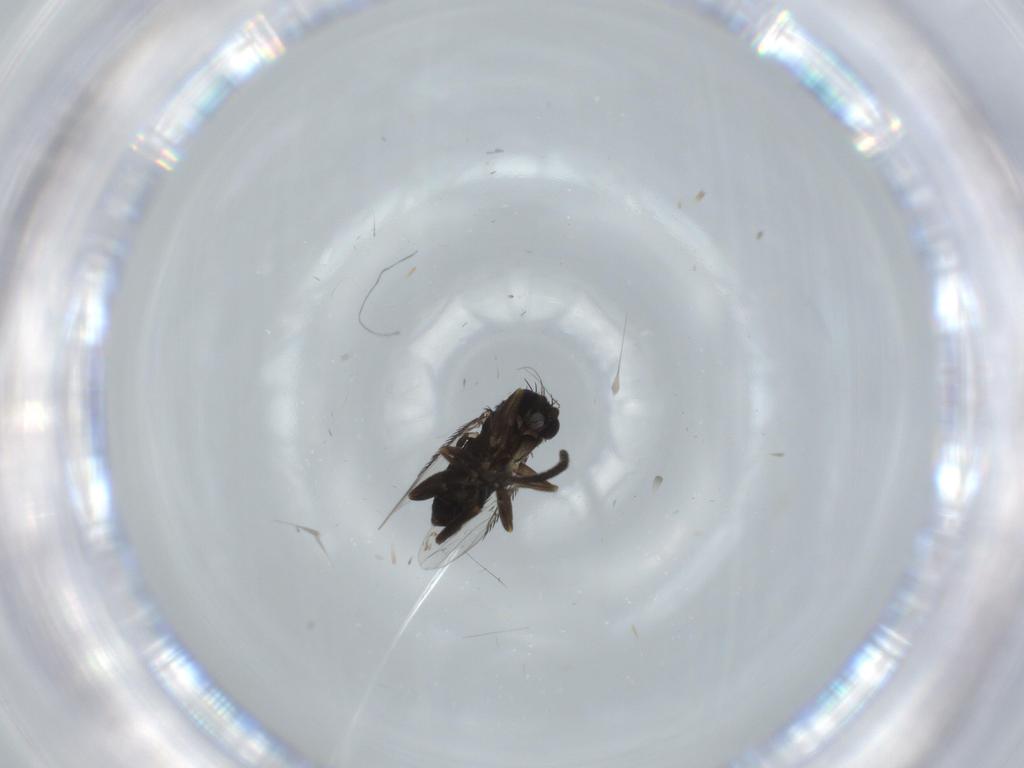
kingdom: Animalia
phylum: Arthropoda
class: Insecta
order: Diptera
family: Sciaridae
